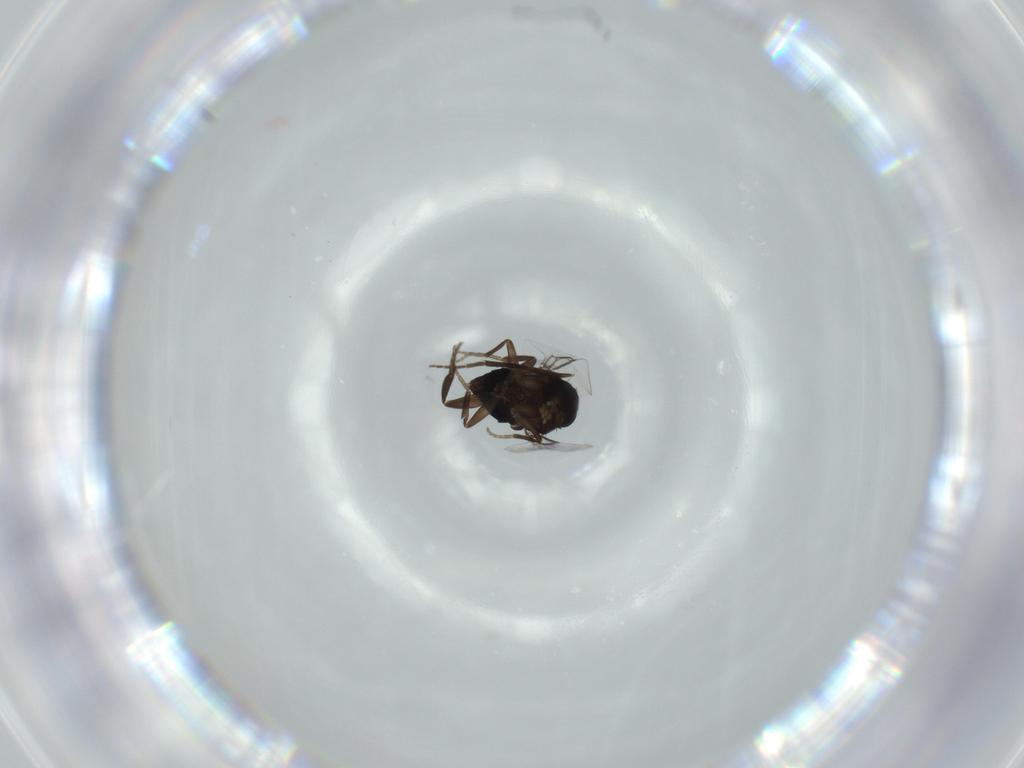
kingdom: Animalia
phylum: Arthropoda
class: Insecta
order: Diptera
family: Phoridae
